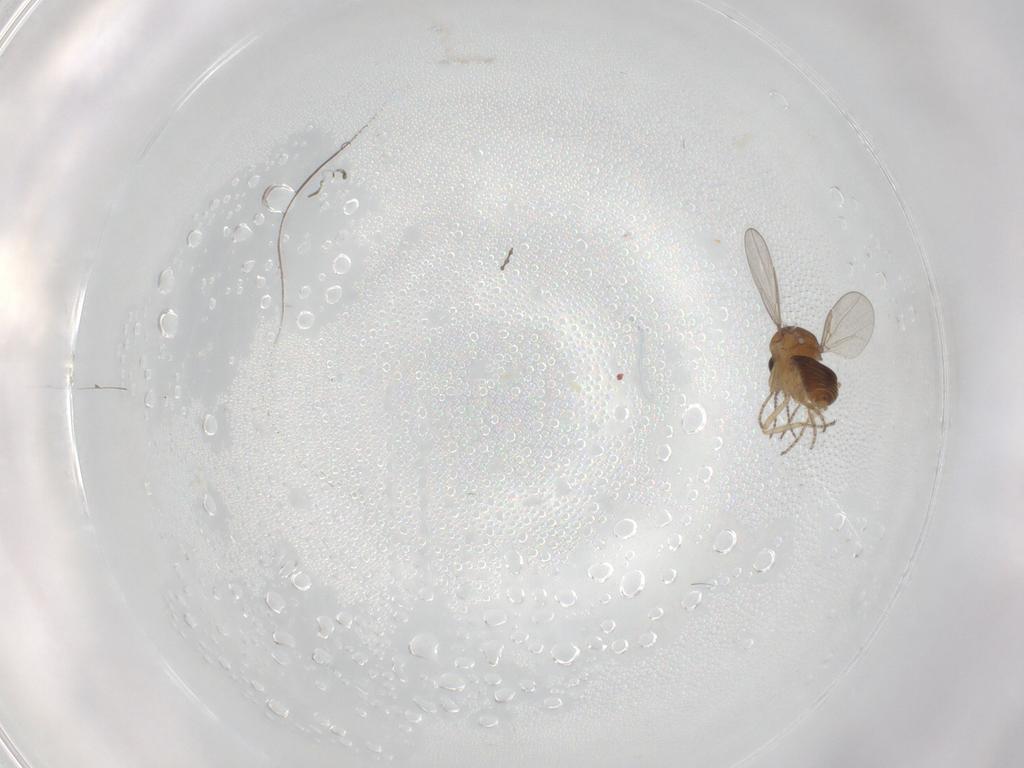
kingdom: Animalia
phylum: Arthropoda
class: Insecta
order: Diptera
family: Ceratopogonidae
